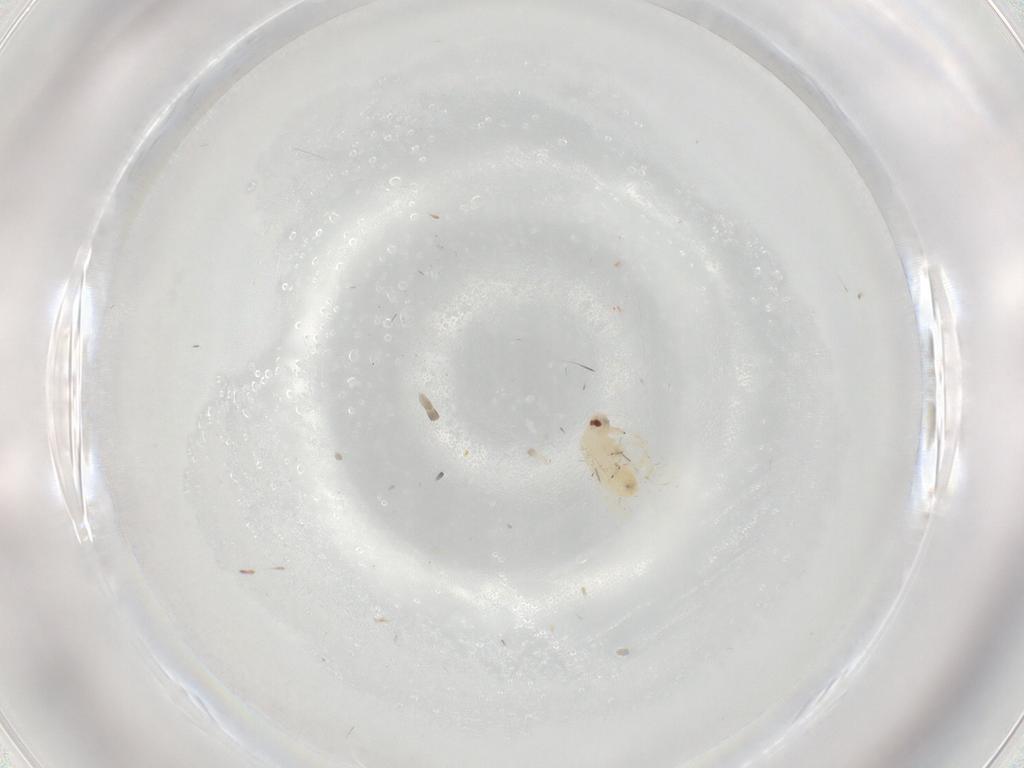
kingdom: Animalia
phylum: Arthropoda
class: Insecta
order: Hemiptera
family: Aleyrodidae
